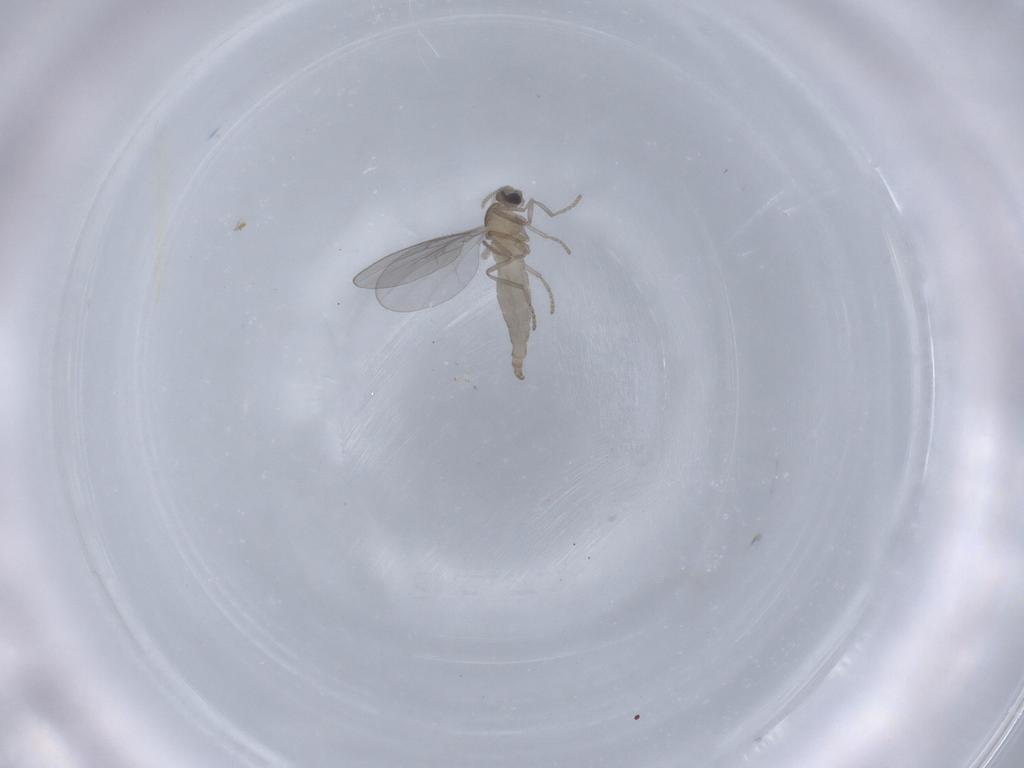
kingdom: Animalia
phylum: Arthropoda
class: Insecta
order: Diptera
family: Cecidomyiidae
